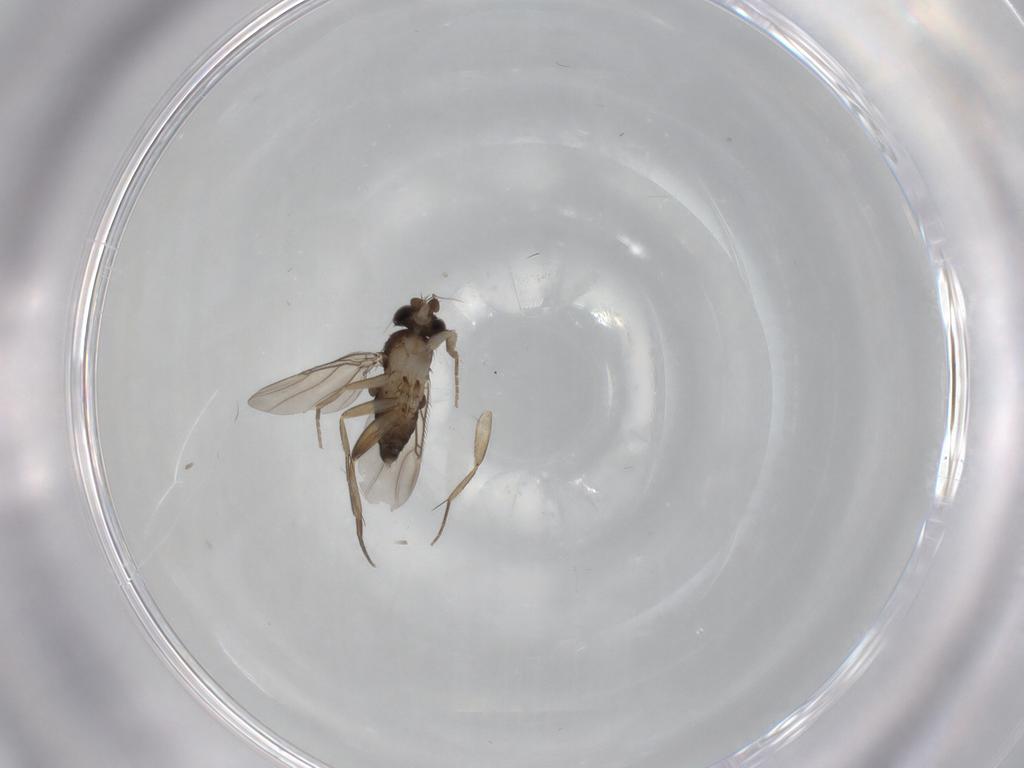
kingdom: Animalia
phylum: Arthropoda
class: Insecta
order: Diptera
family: Phoridae
